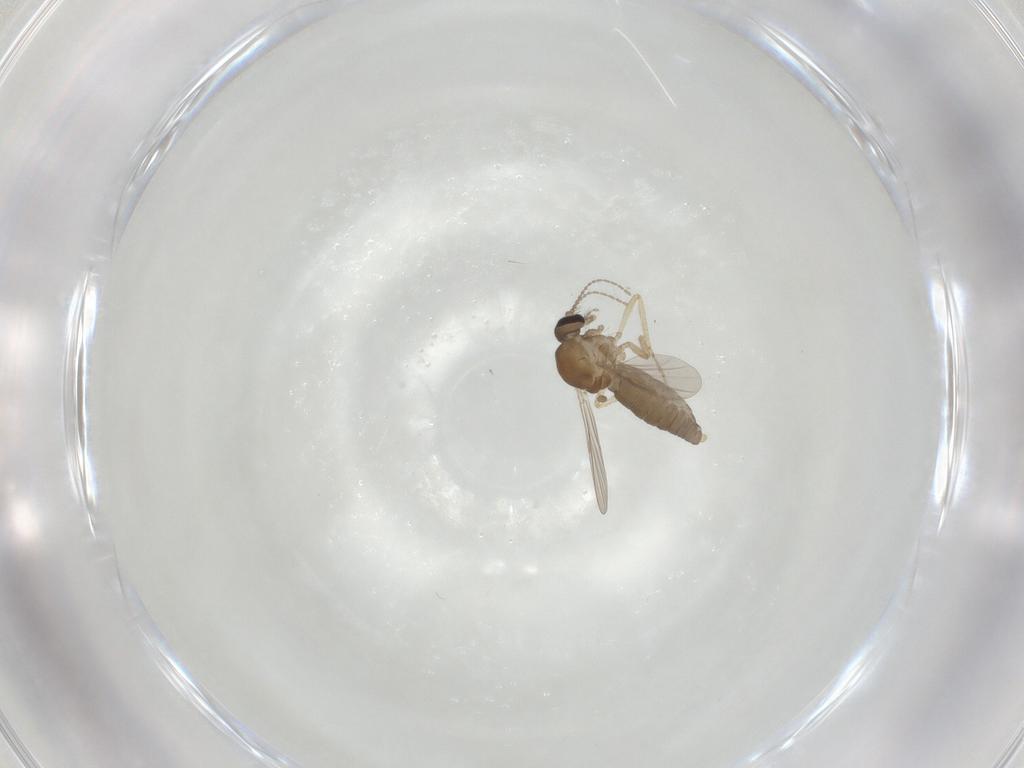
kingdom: Animalia
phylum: Arthropoda
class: Insecta
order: Diptera
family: Ceratopogonidae
